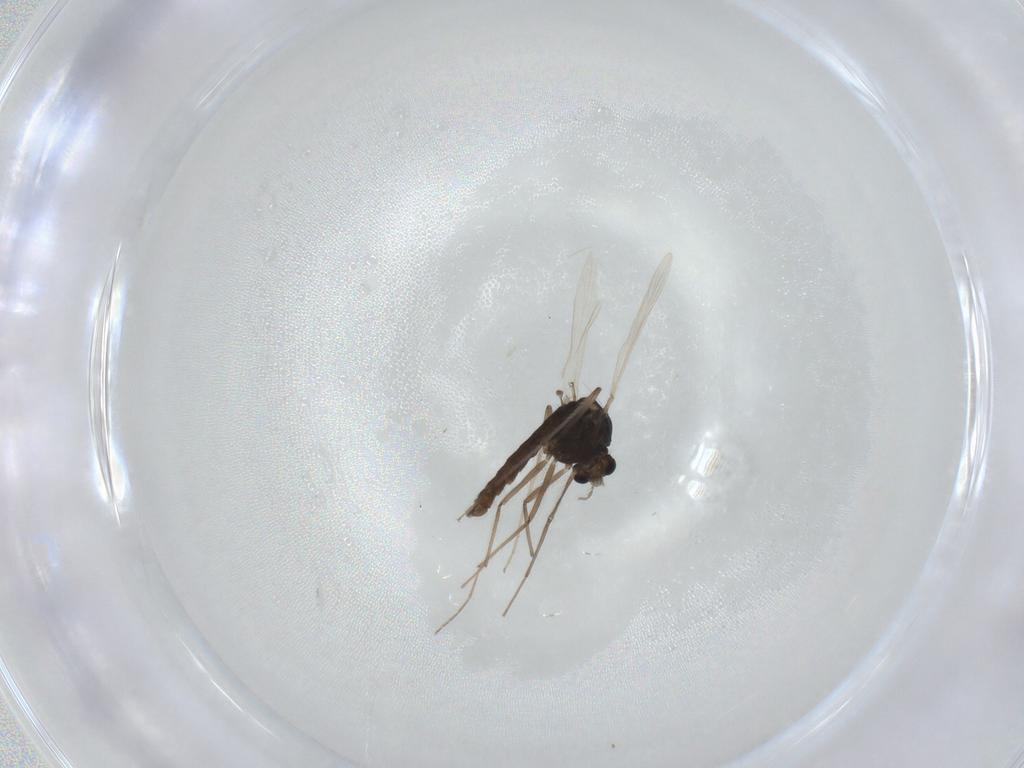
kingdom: Animalia
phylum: Arthropoda
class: Insecta
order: Diptera
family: Chironomidae
